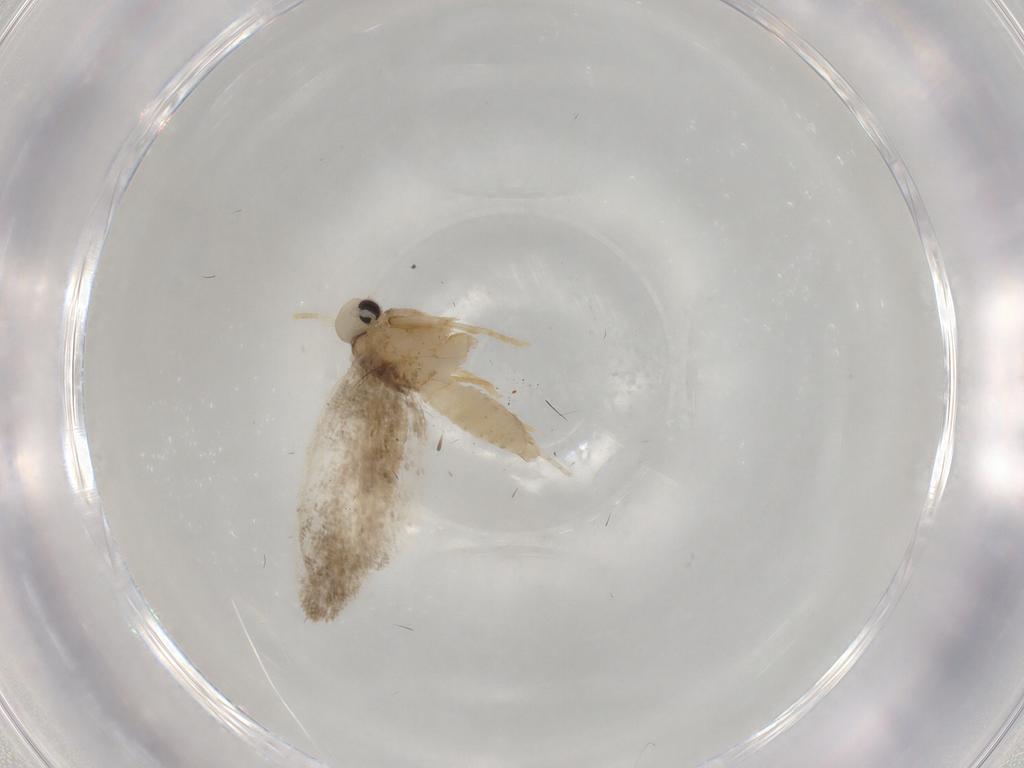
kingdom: Animalia
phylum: Arthropoda
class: Insecta
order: Lepidoptera
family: Psychidae
